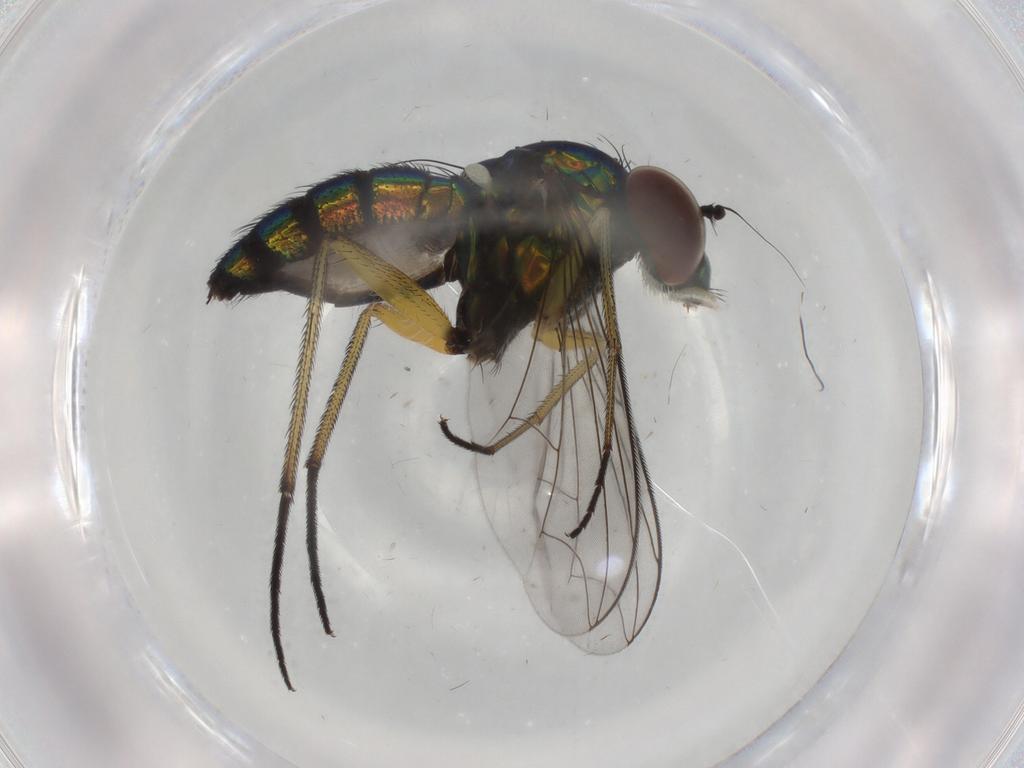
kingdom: Animalia
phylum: Arthropoda
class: Insecta
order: Diptera
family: Dolichopodidae
